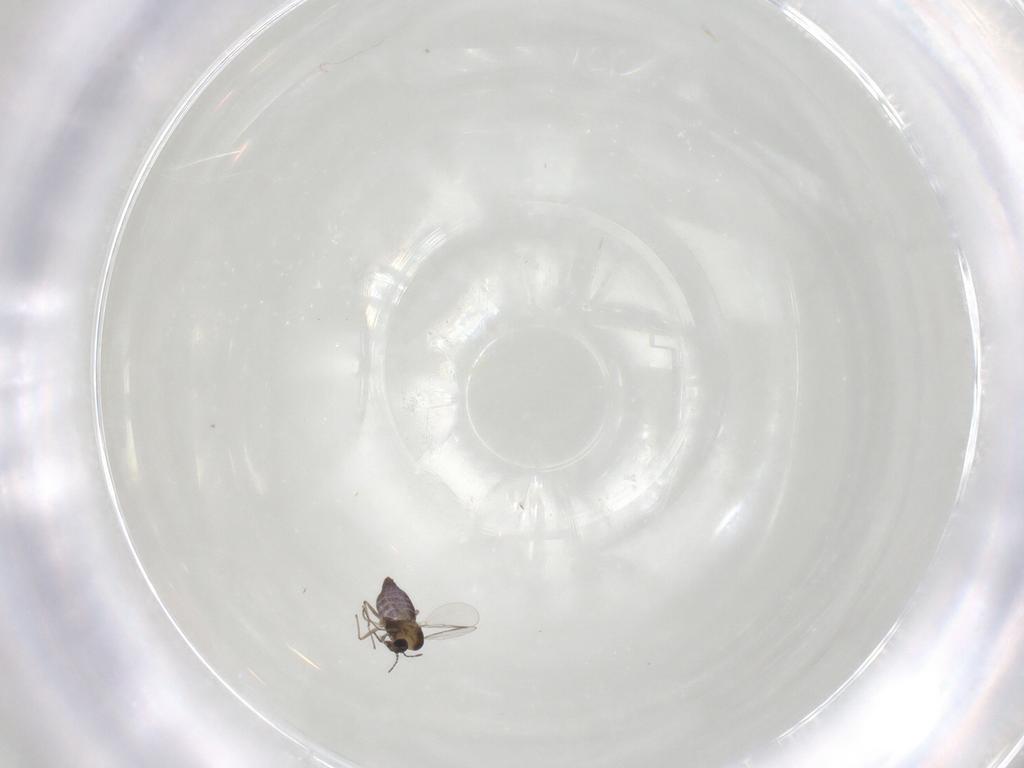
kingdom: Animalia
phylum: Arthropoda
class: Insecta
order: Diptera
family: Chironomidae
